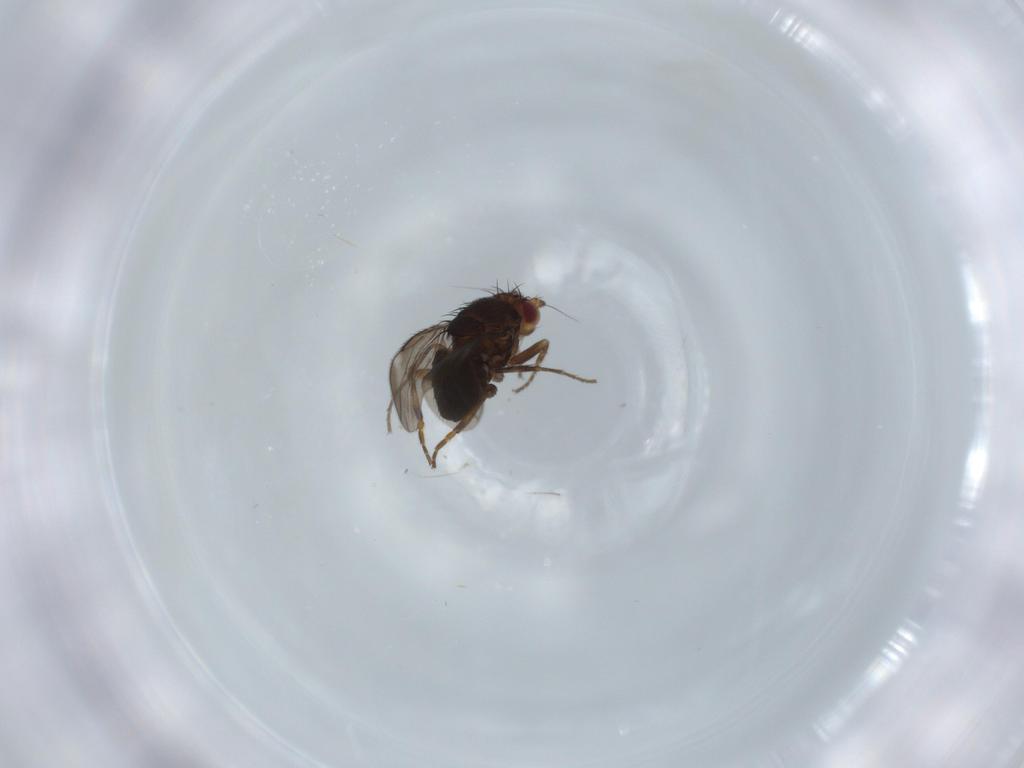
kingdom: Animalia
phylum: Arthropoda
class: Insecta
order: Diptera
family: Sphaeroceridae
